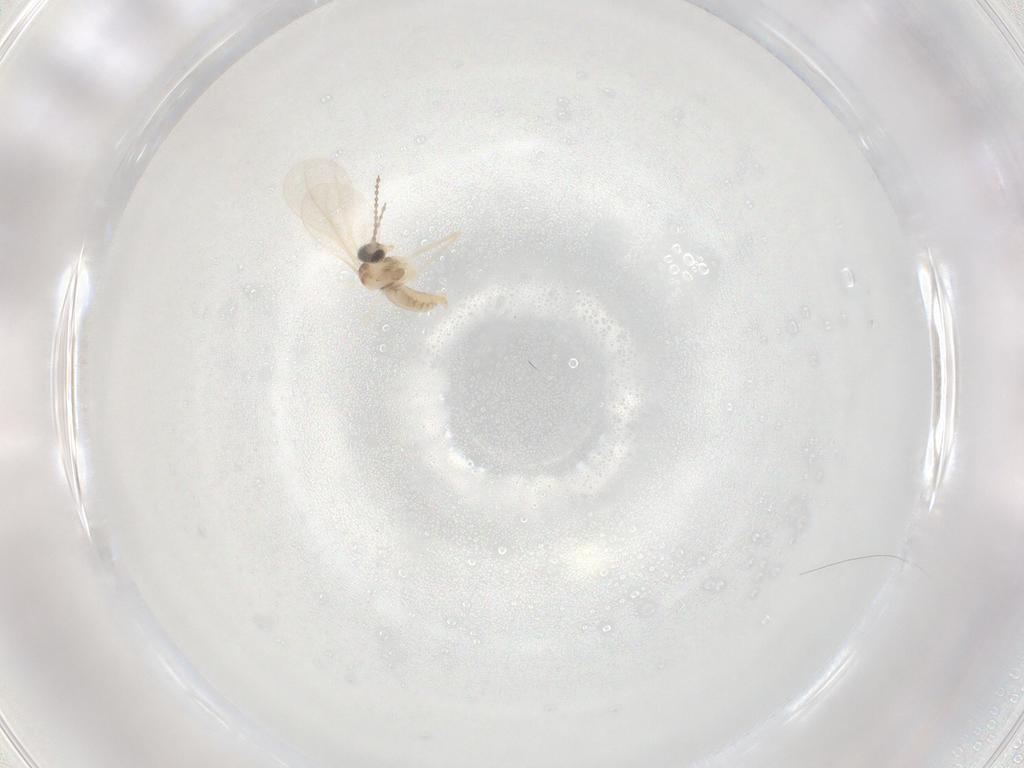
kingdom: Animalia
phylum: Arthropoda
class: Insecta
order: Diptera
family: Cecidomyiidae
